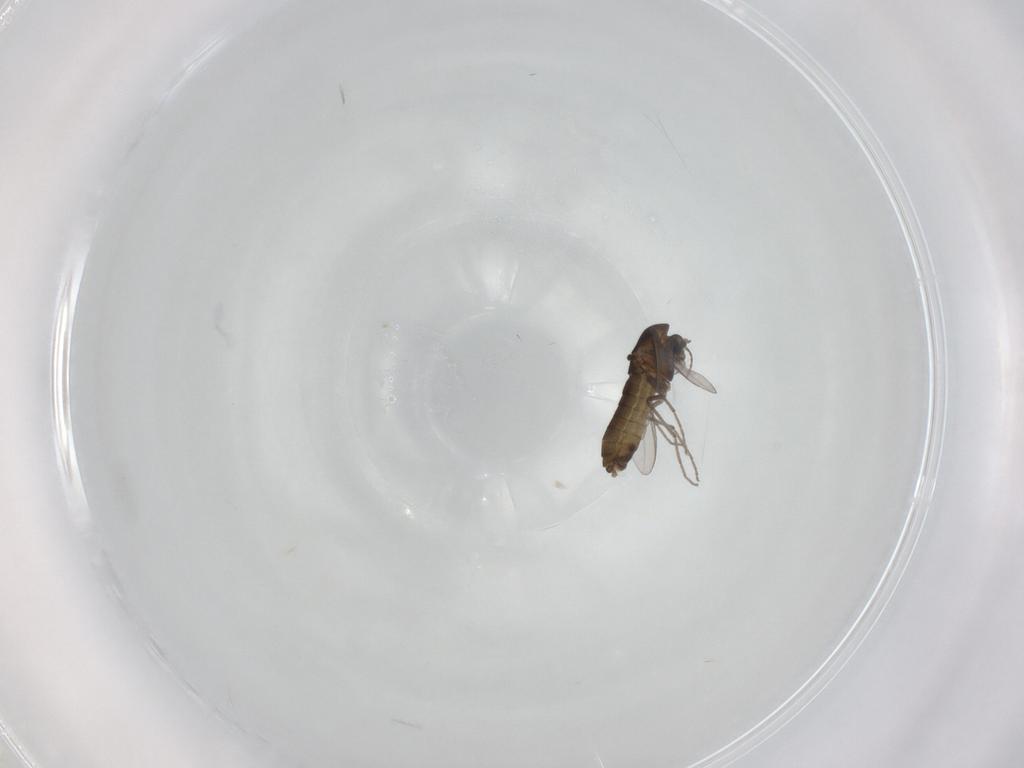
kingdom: Animalia
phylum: Arthropoda
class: Insecta
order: Diptera
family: Chironomidae
